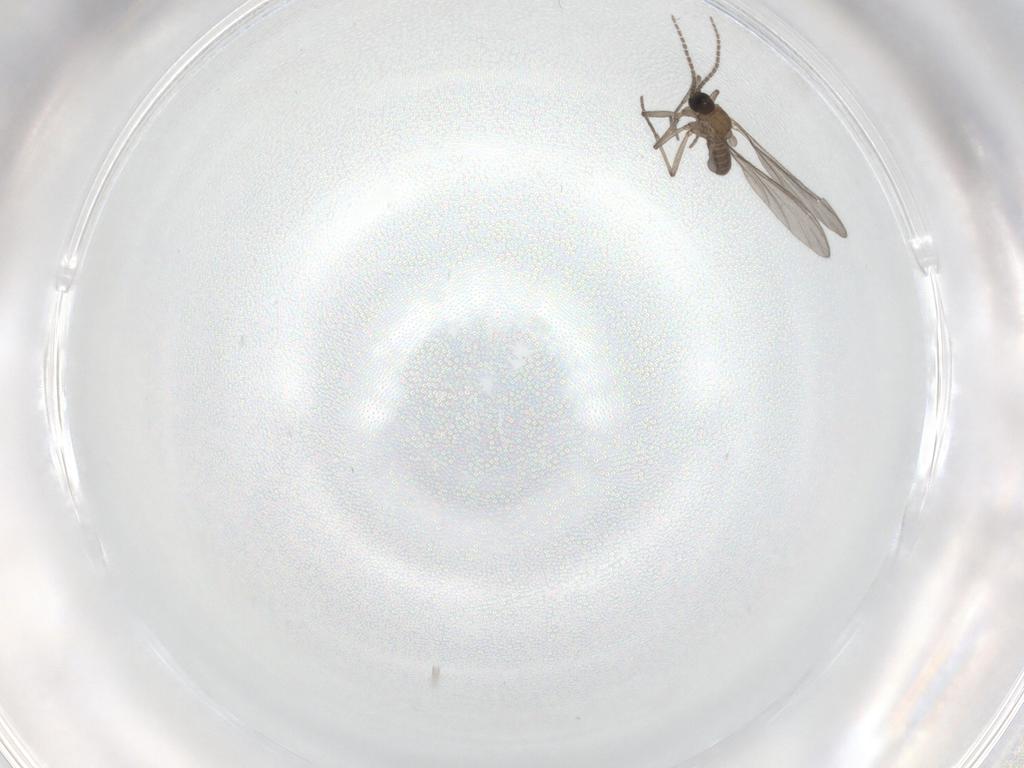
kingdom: Animalia
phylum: Arthropoda
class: Insecta
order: Diptera
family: Sciaridae
